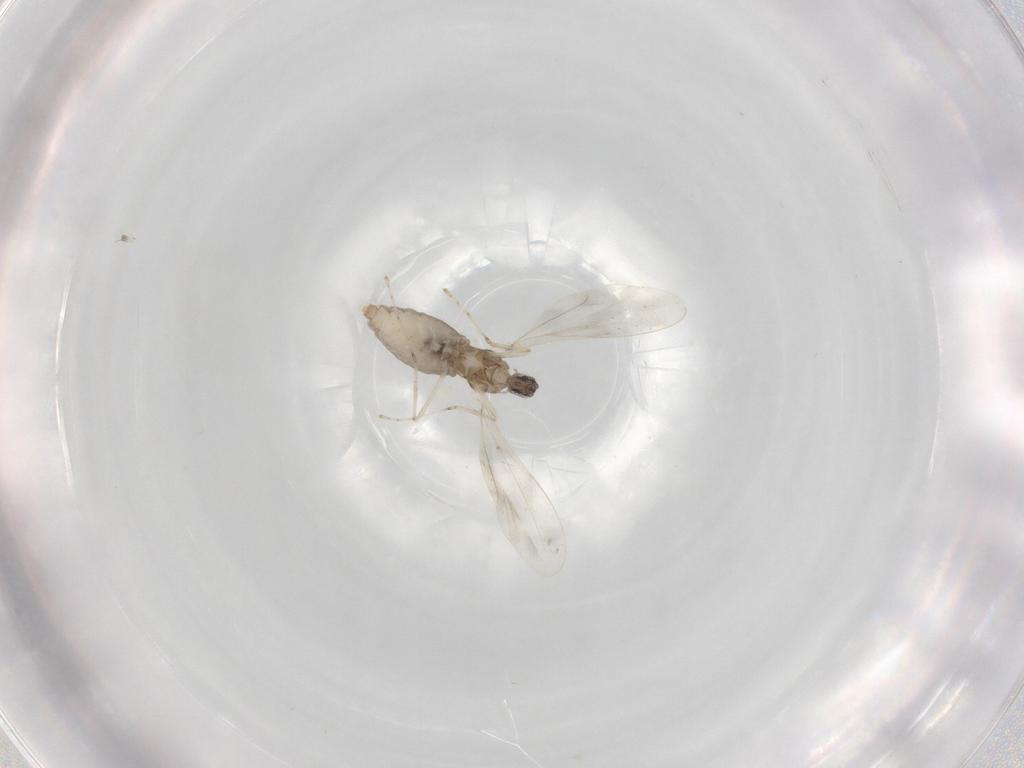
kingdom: Animalia
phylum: Arthropoda
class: Insecta
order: Diptera
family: Cecidomyiidae
